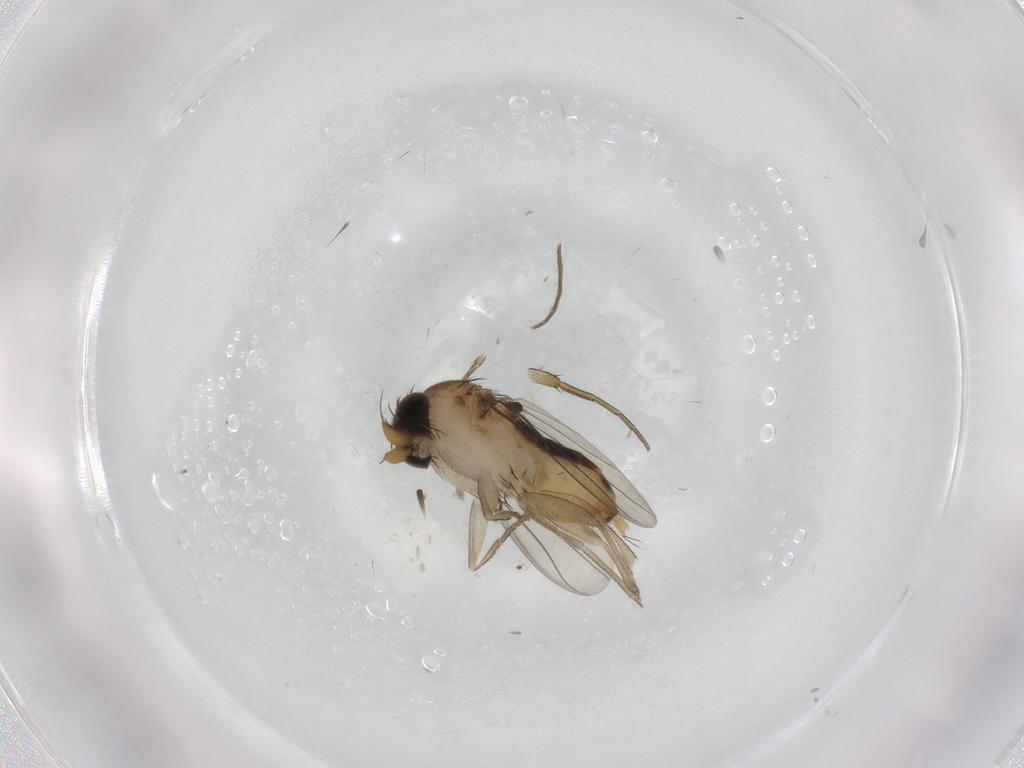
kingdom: Animalia
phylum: Arthropoda
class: Insecta
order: Diptera
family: Phoridae
